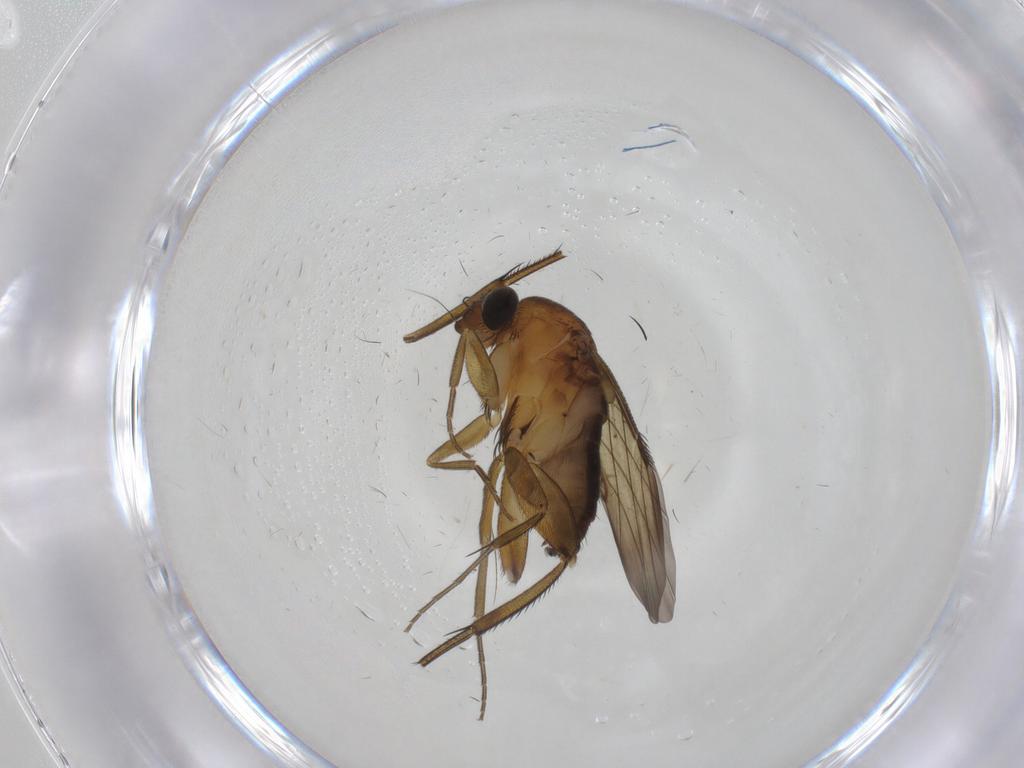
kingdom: Animalia
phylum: Arthropoda
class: Insecta
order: Diptera
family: Phoridae
